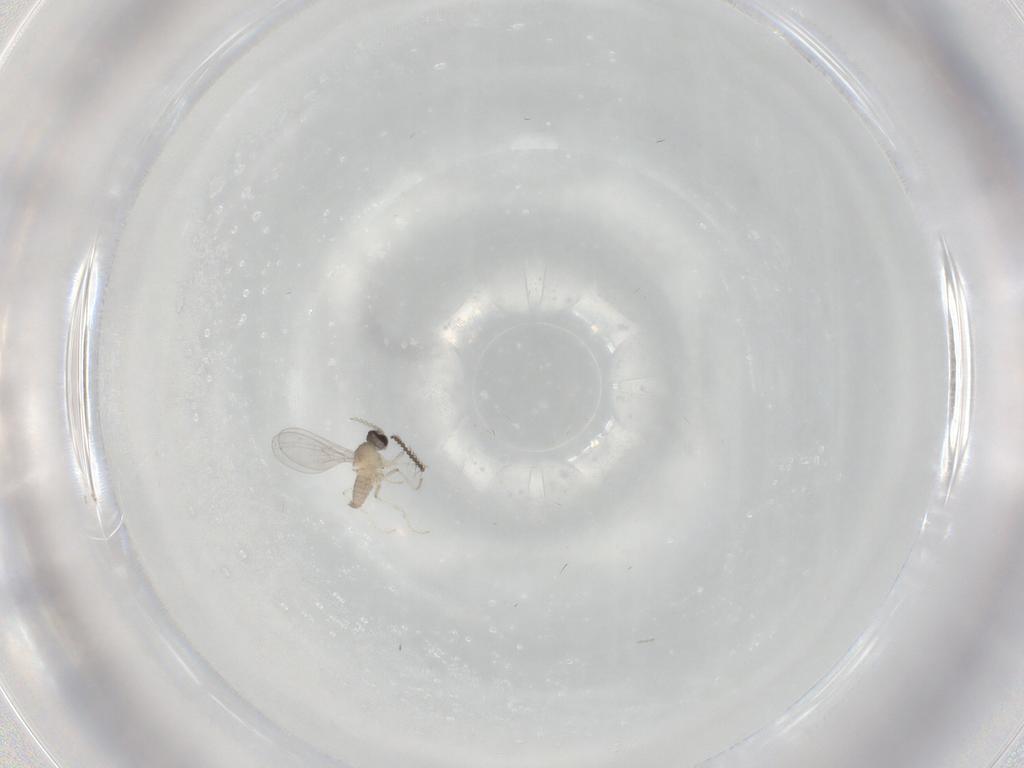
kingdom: Animalia
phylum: Arthropoda
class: Insecta
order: Diptera
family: Cecidomyiidae
